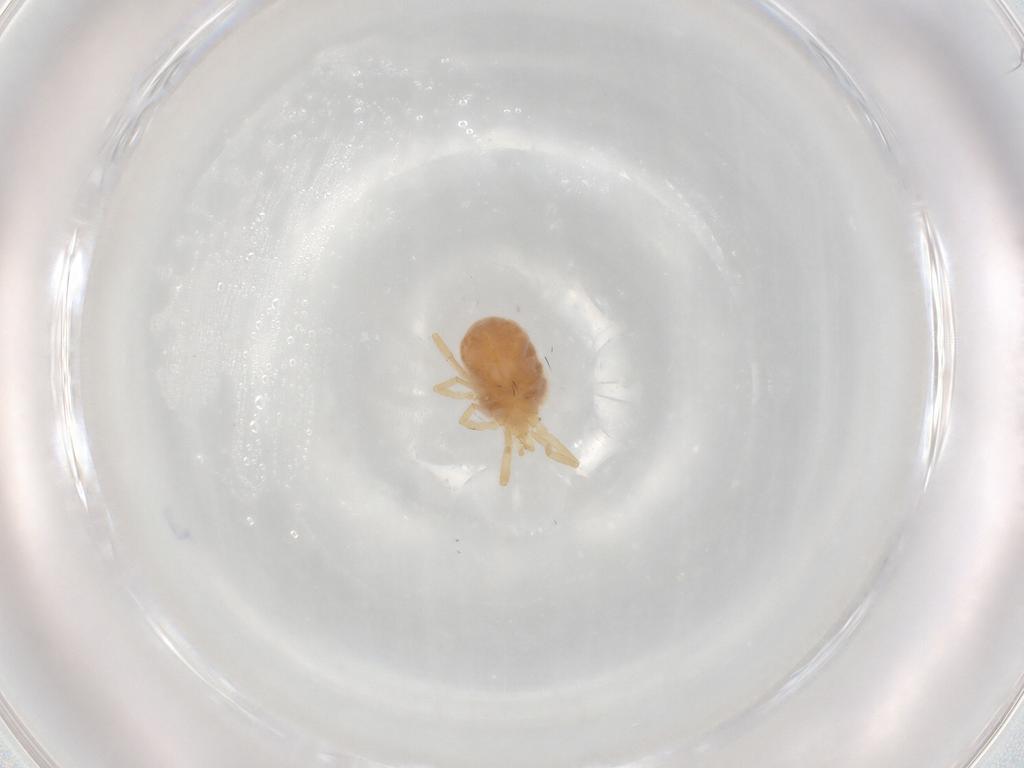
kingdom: Animalia
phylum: Arthropoda
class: Arachnida
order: Trombidiformes
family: Erythraeidae
